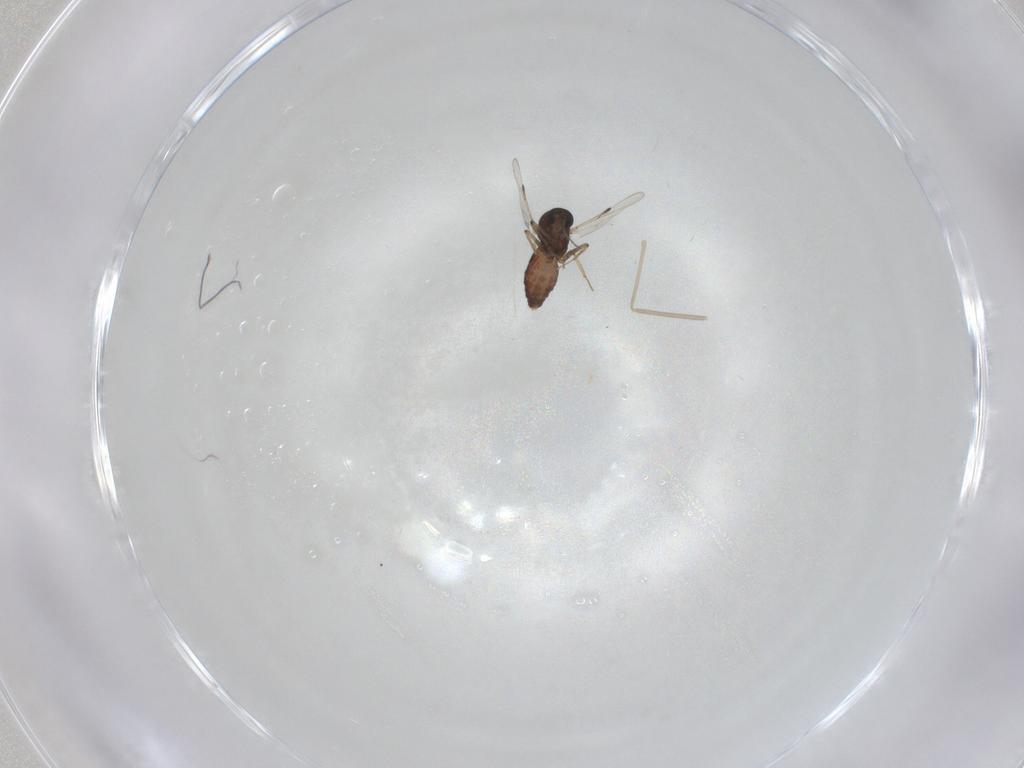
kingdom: Animalia
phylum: Arthropoda
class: Insecta
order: Diptera
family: Ceratopogonidae
